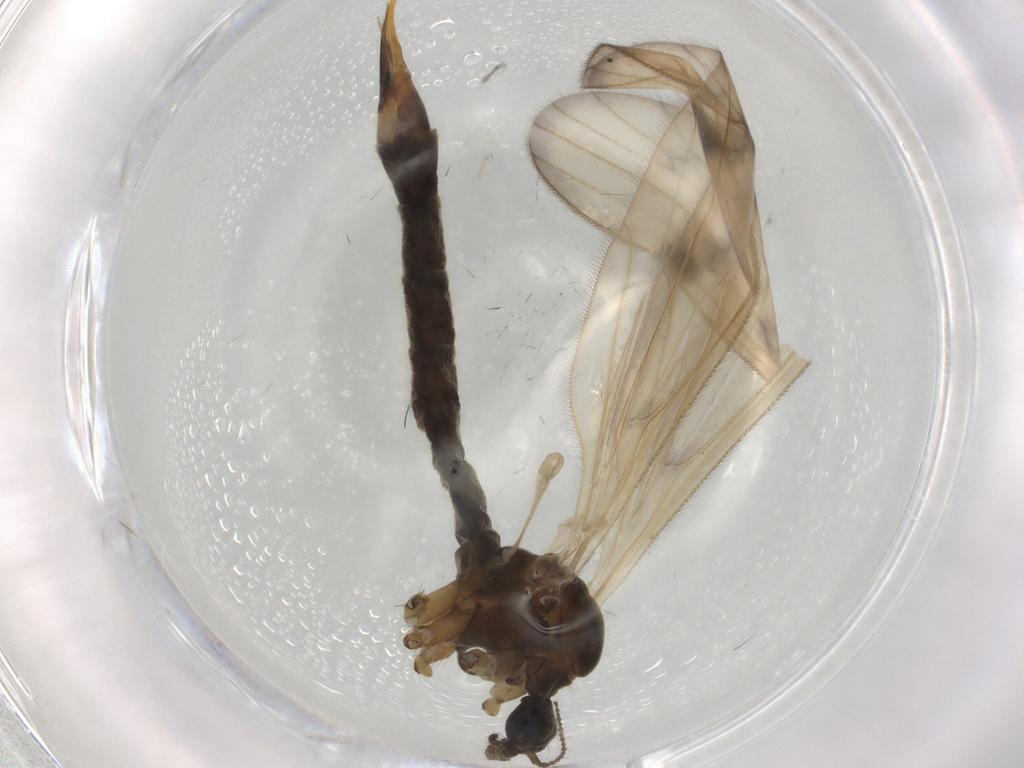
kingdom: Animalia
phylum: Arthropoda
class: Insecta
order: Diptera
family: Limoniidae
